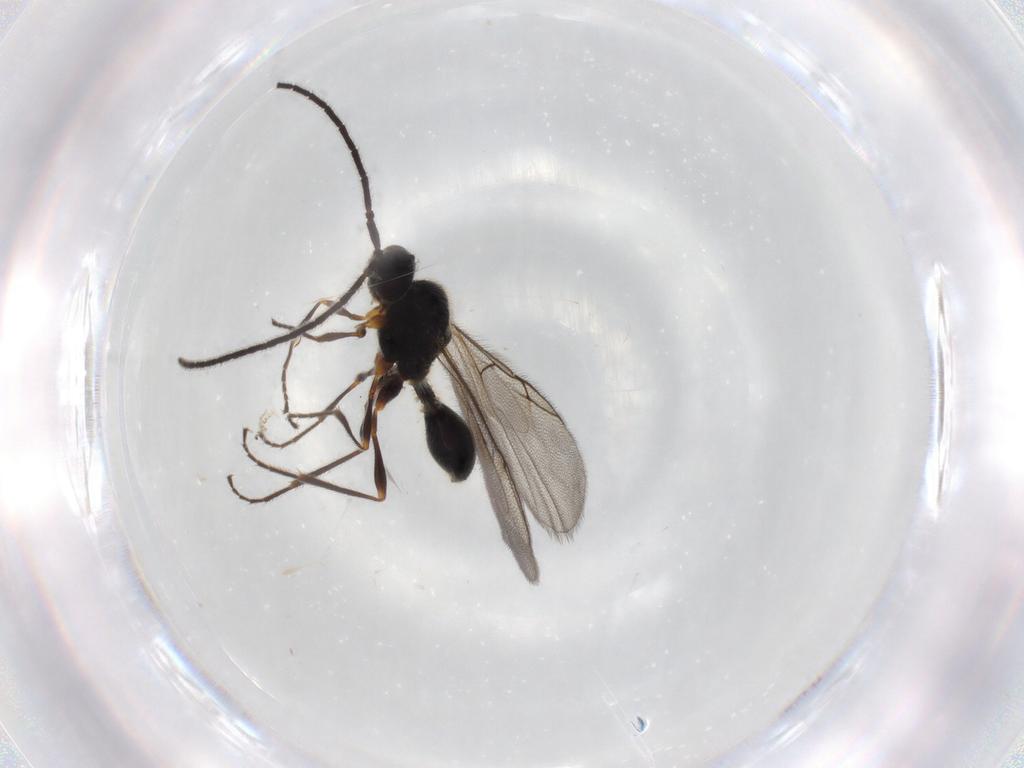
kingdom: Animalia
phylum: Arthropoda
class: Insecta
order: Hymenoptera
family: Diapriidae
